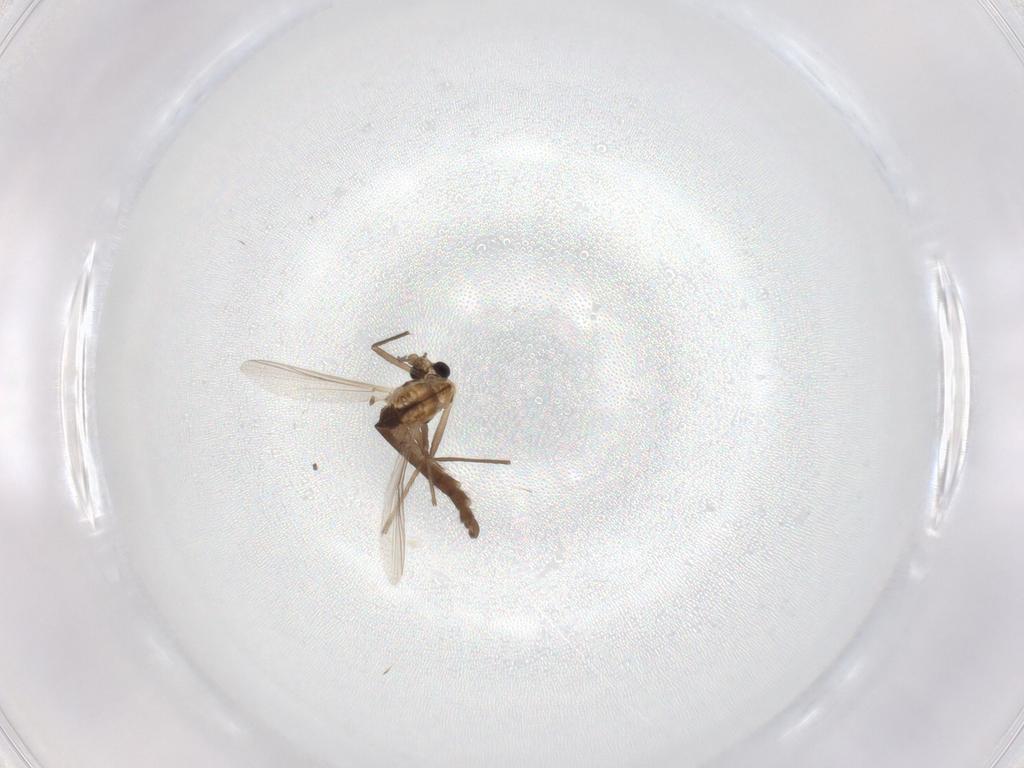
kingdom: Animalia
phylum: Arthropoda
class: Insecta
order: Diptera
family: Chironomidae
